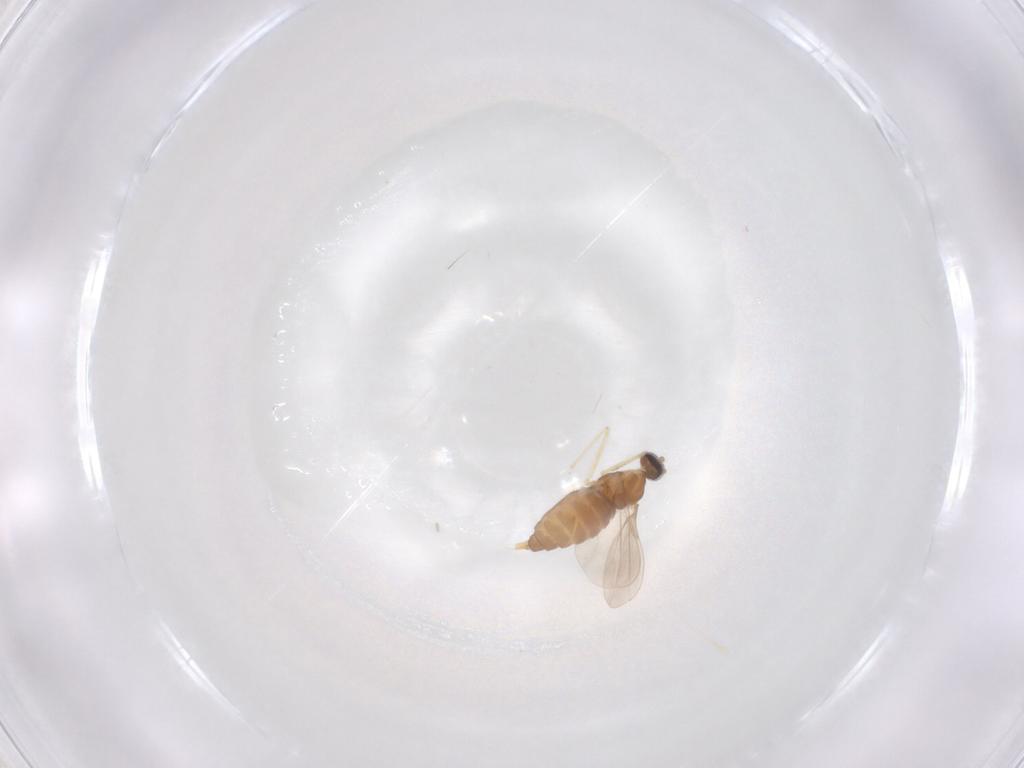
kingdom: Animalia
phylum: Arthropoda
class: Insecta
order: Diptera
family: Cecidomyiidae
